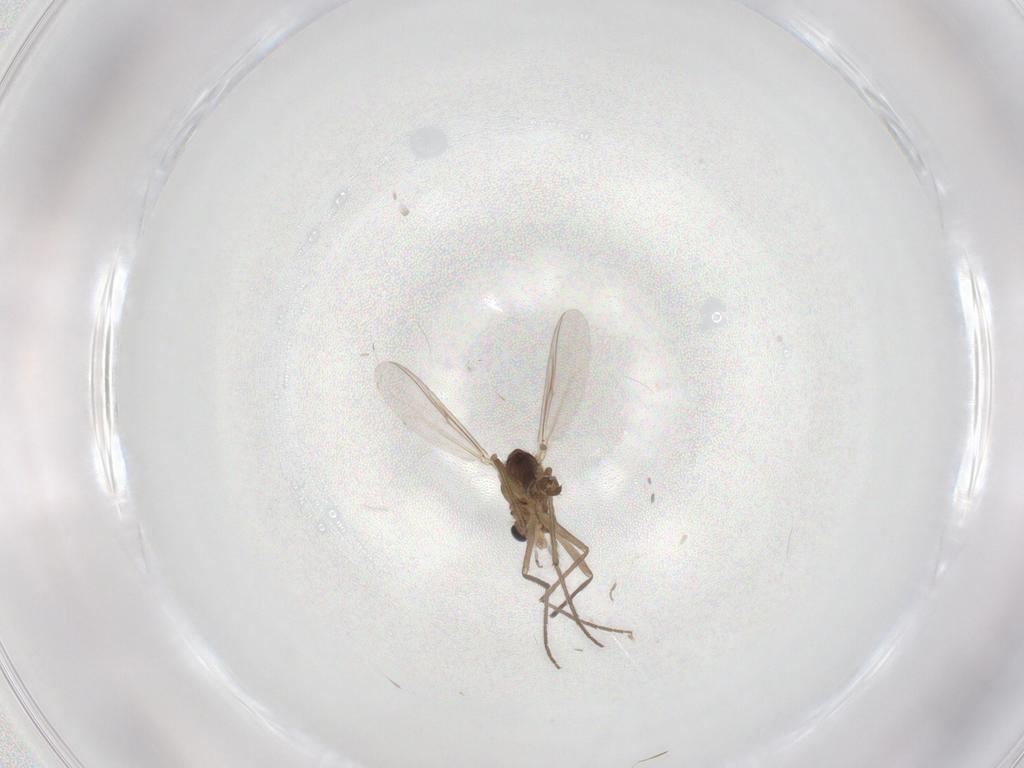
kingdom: Animalia
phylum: Arthropoda
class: Insecta
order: Diptera
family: Chironomidae
